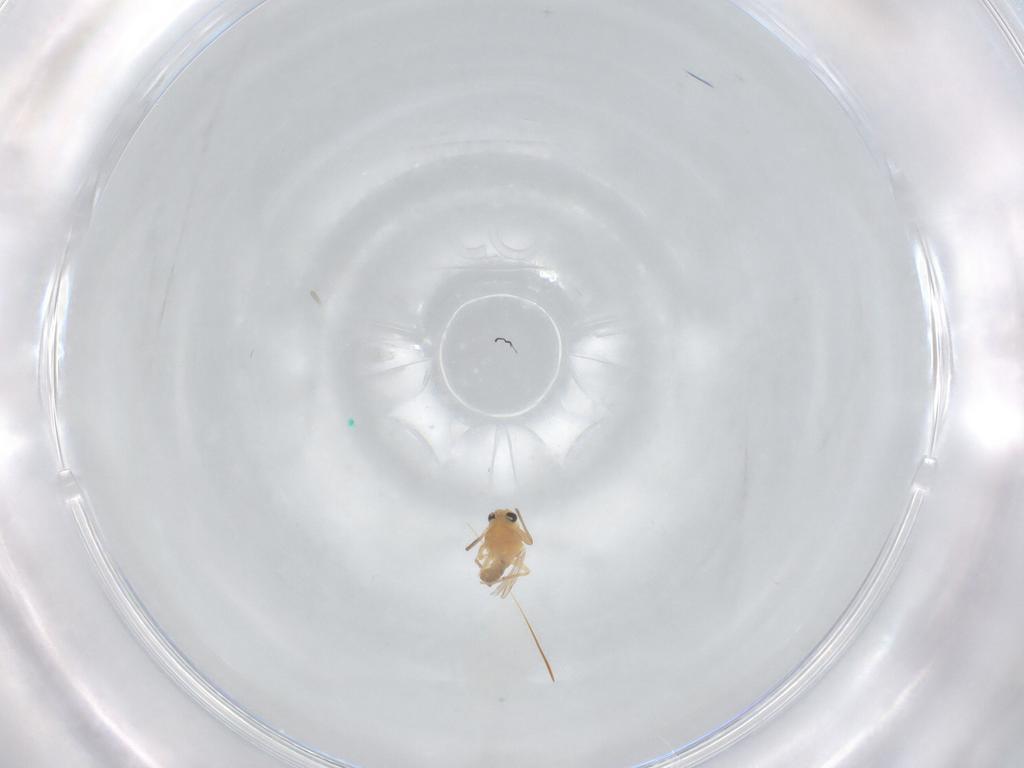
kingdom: Animalia
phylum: Arthropoda
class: Insecta
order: Diptera
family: Chironomidae
